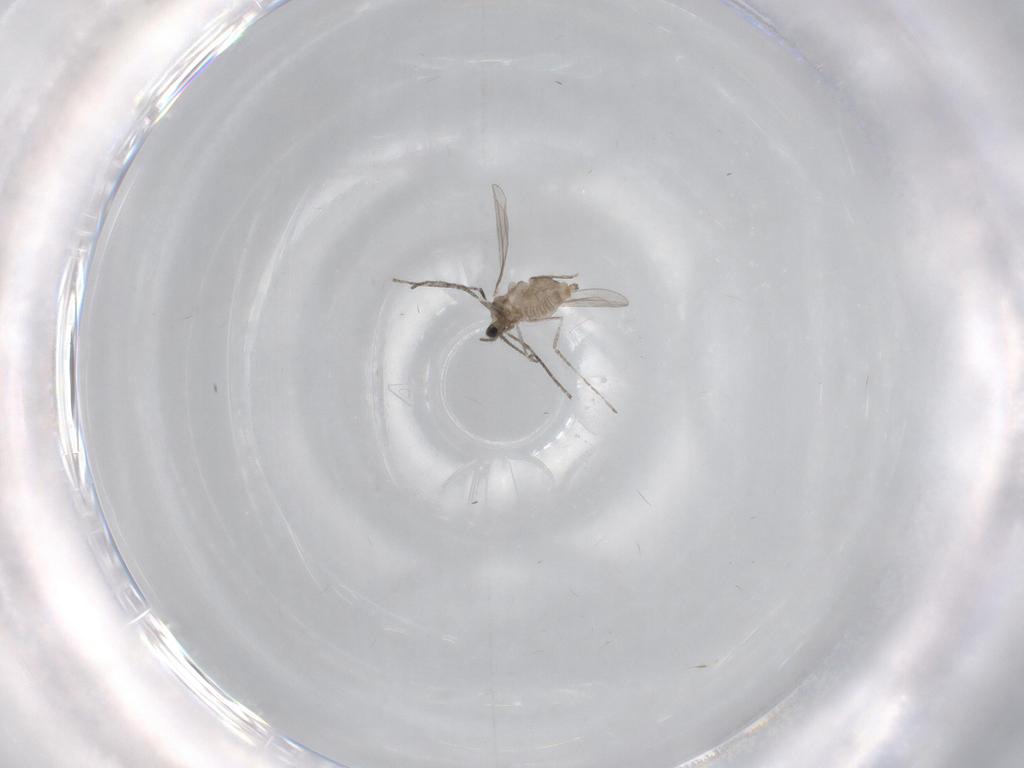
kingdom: Animalia
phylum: Arthropoda
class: Insecta
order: Diptera
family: Cecidomyiidae
